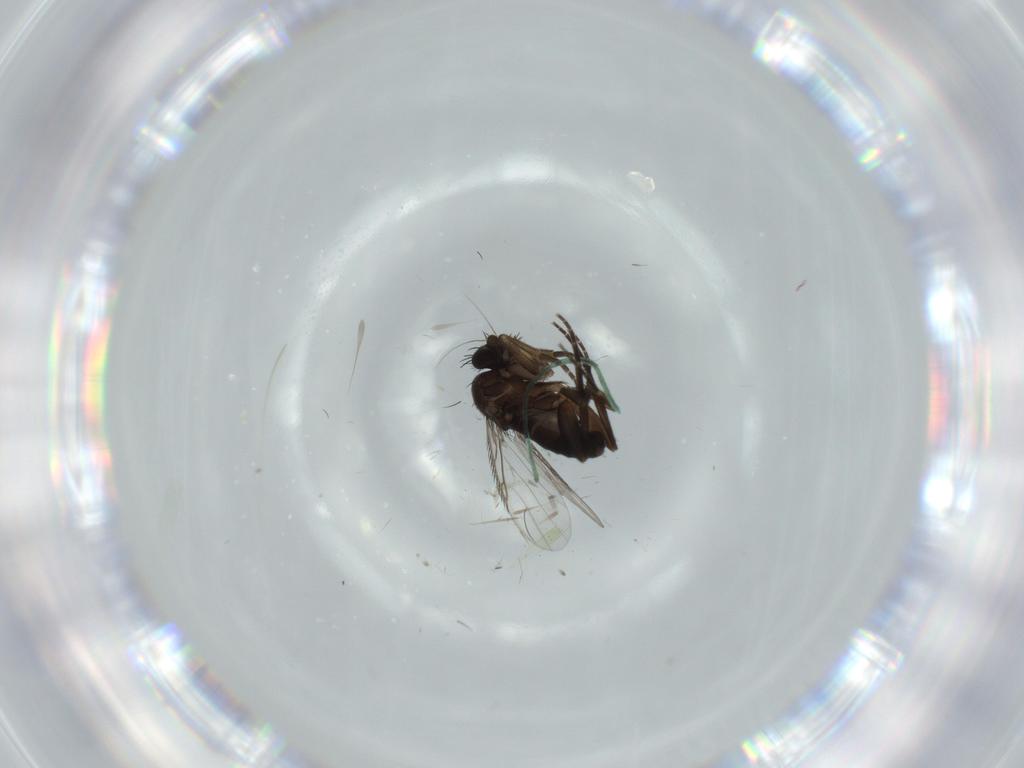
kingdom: Animalia
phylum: Arthropoda
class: Insecta
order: Diptera
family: Phoridae
